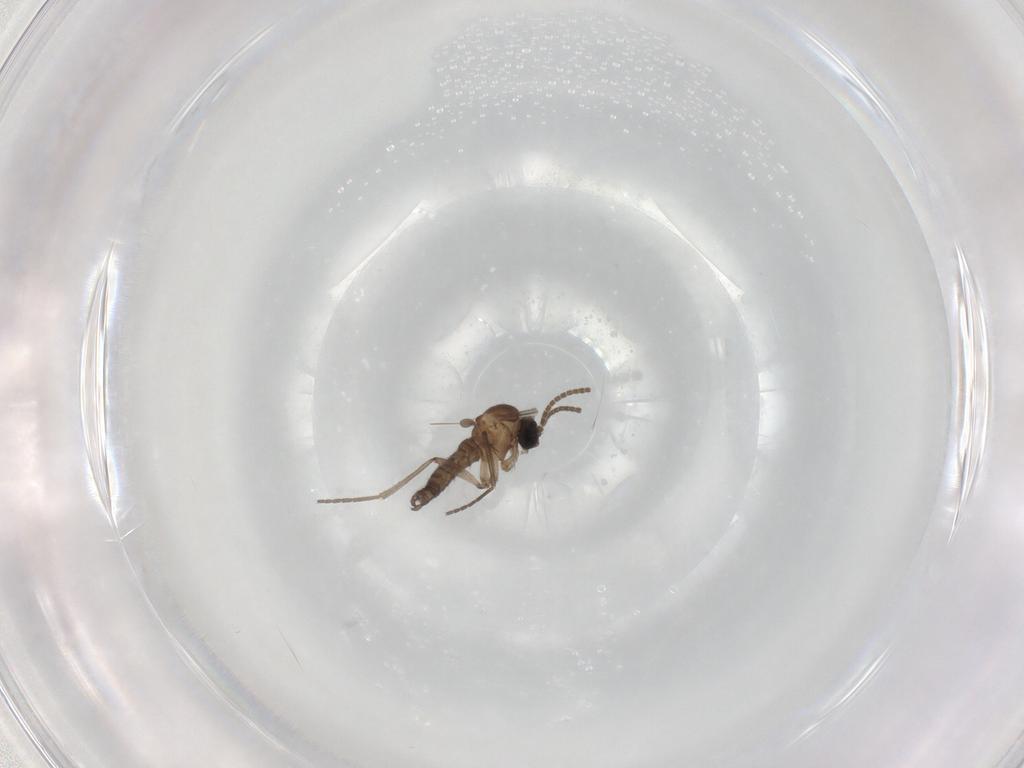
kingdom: Animalia
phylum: Arthropoda
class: Insecta
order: Diptera
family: Sciaridae
